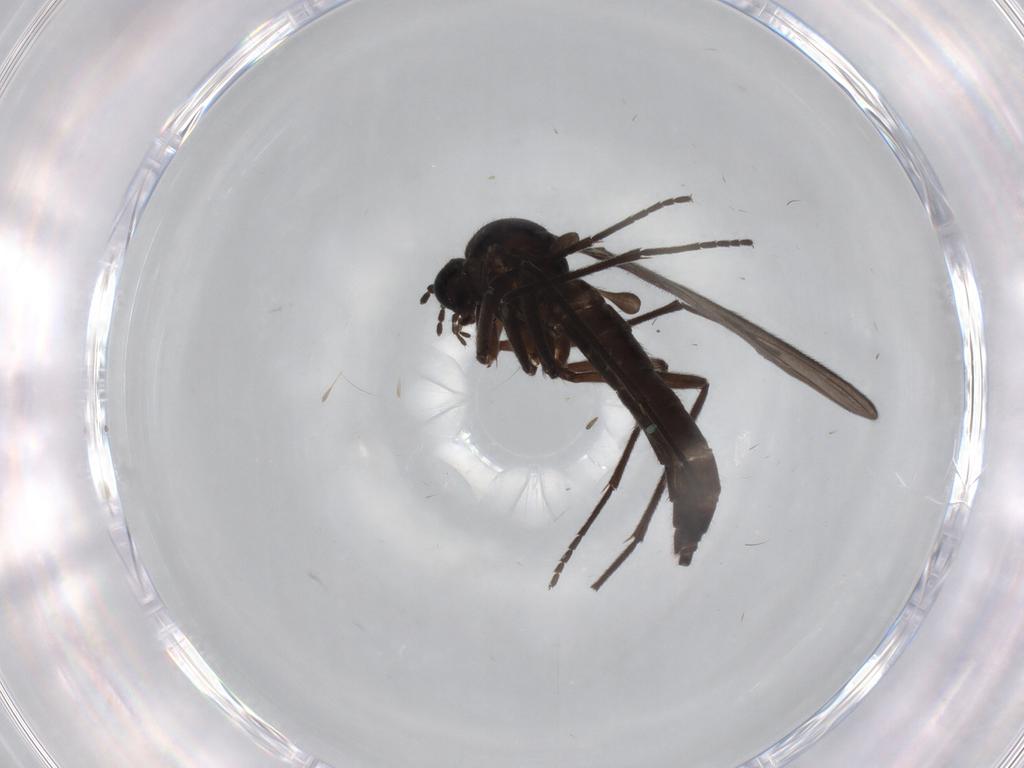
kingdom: Animalia
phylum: Arthropoda
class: Insecta
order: Diptera
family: Sciaridae
